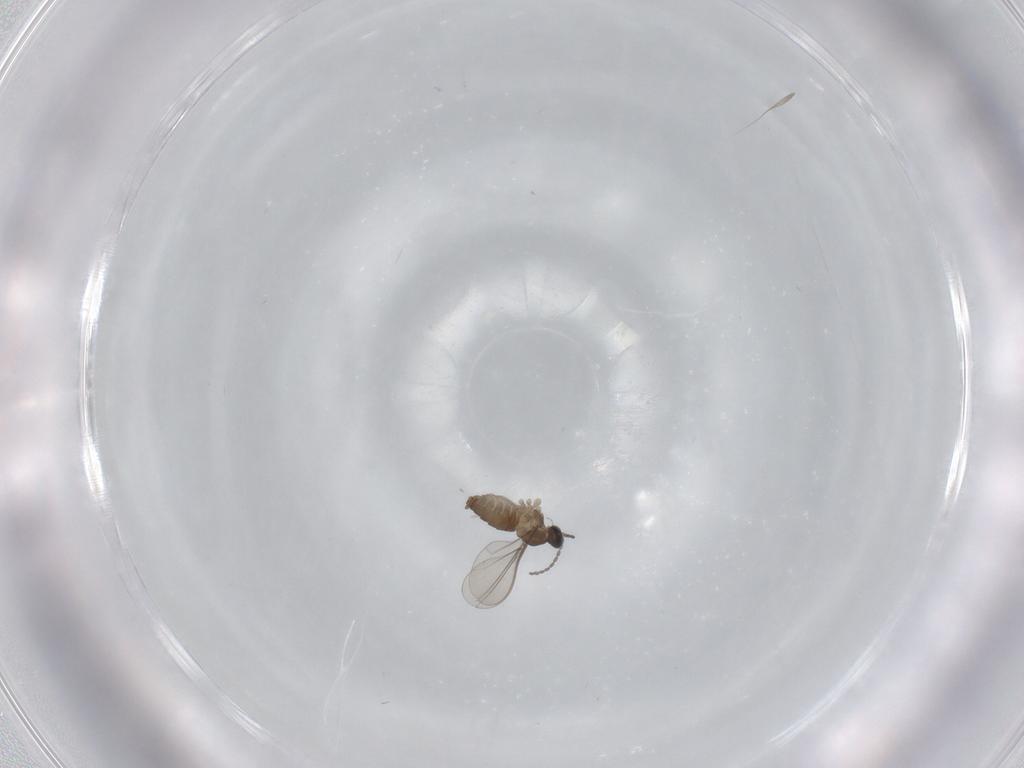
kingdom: Animalia
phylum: Arthropoda
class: Insecta
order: Diptera
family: Cecidomyiidae
